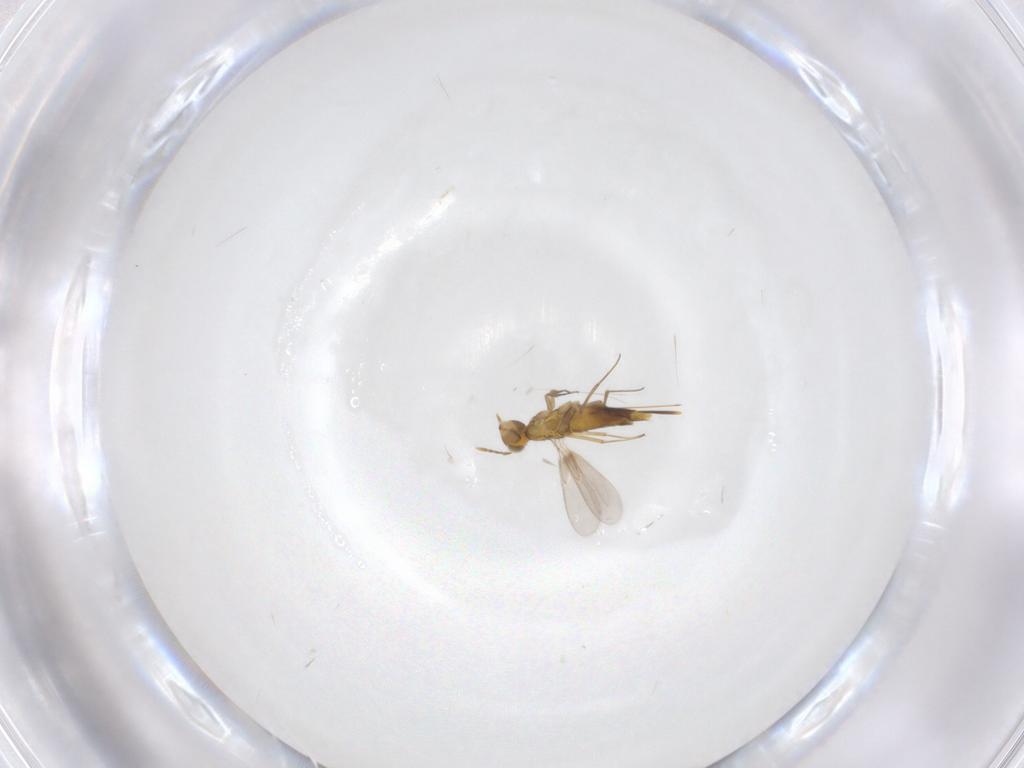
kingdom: Animalia
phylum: Arthropoda
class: Insecta
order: Hymenoptera
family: Aphelinidae
